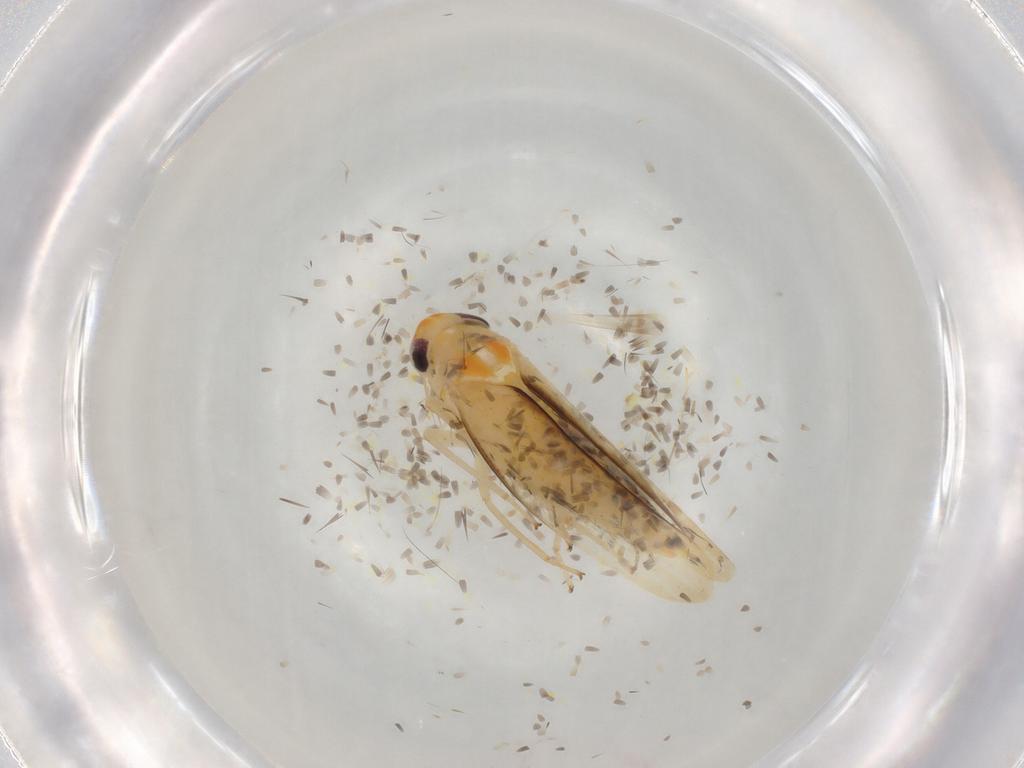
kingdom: Animalia
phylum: Arthropoda
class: Insecta
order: Hemiptera
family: Cicadellidae
